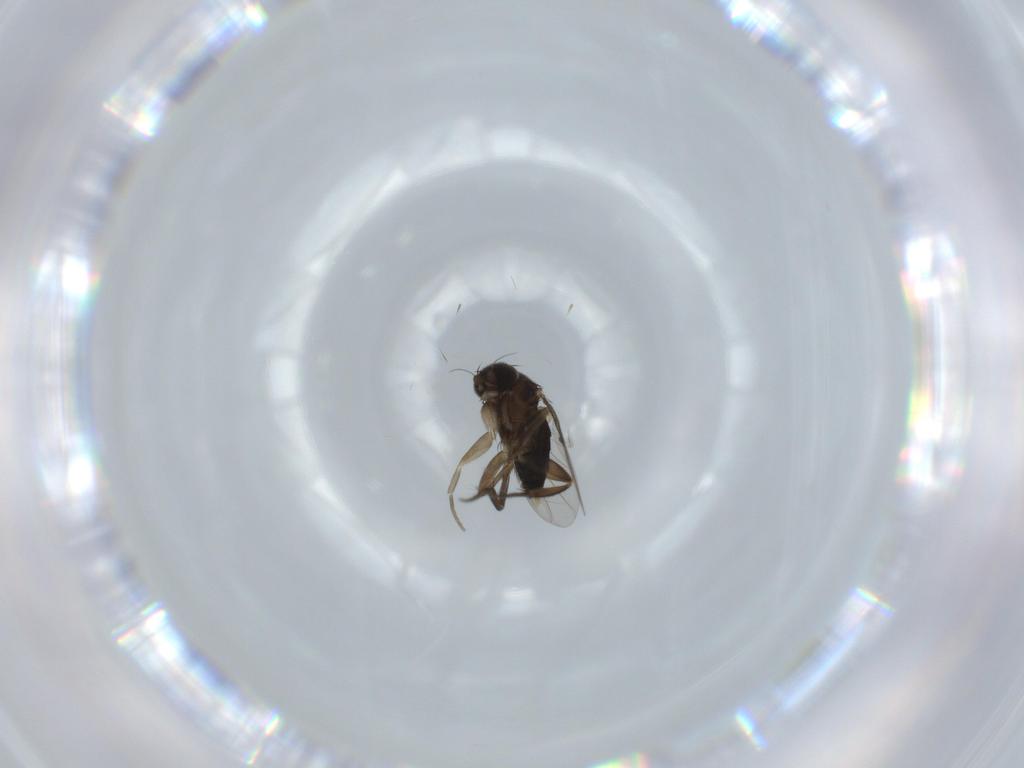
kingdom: Animalia
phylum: Arthropoda
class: Insecta
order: Diptera
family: Phoridae
